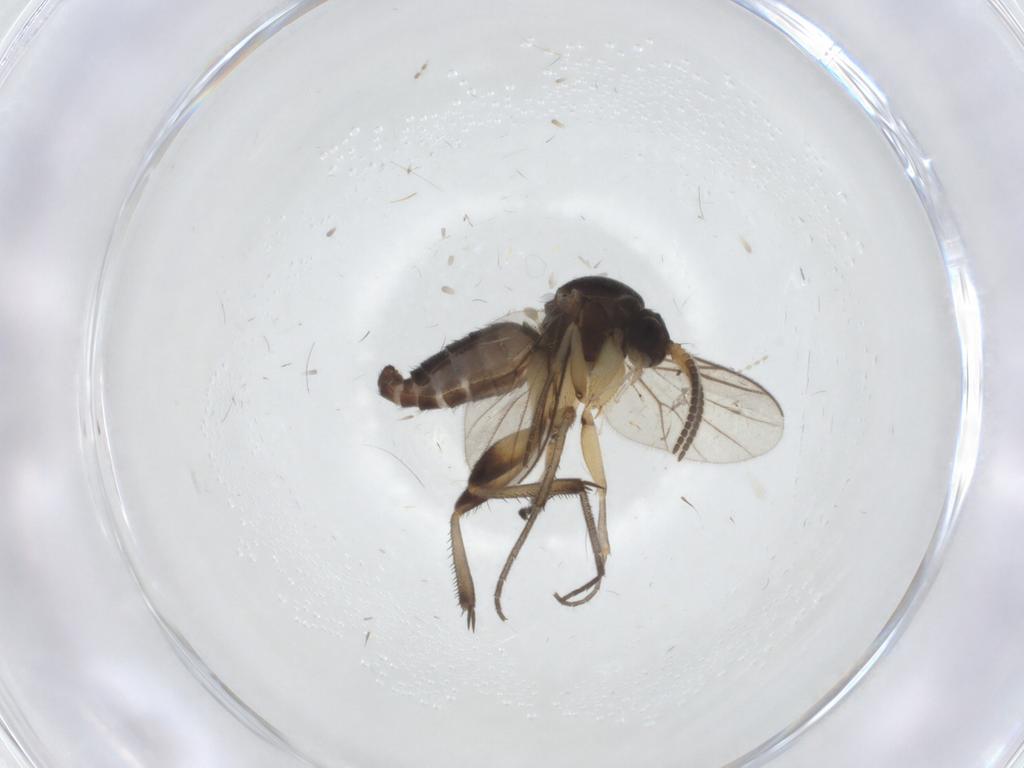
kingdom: Animalia
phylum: Arthropoda
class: Insecta
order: Diptera
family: Mycetophilidae
